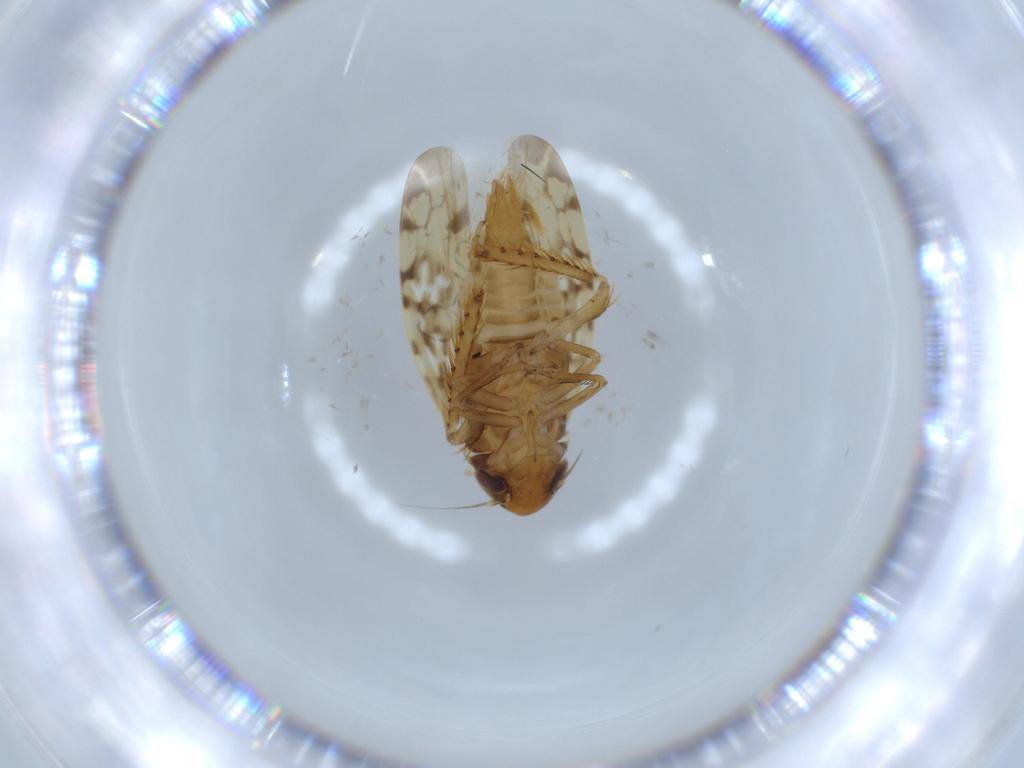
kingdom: Animalia
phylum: Arthropoda
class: Insecta
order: Hemiptera
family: Cicadellidae
